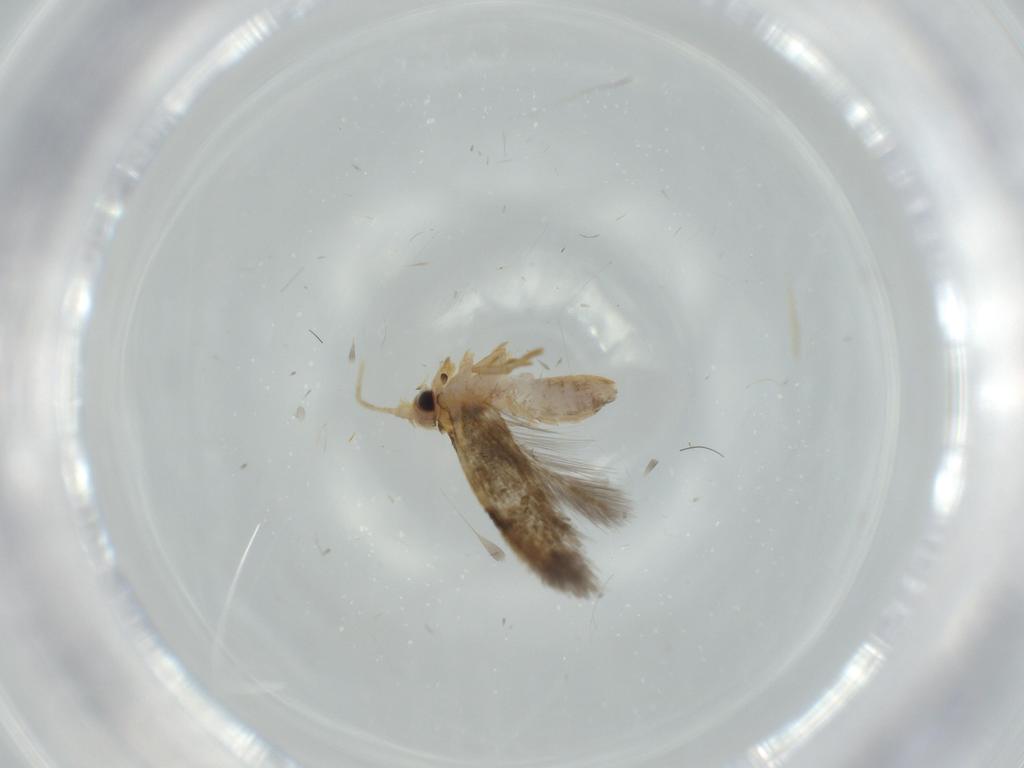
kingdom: Animalia
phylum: Arthropoda
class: Insecta
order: Lepidoptera
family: Nepticulidae
